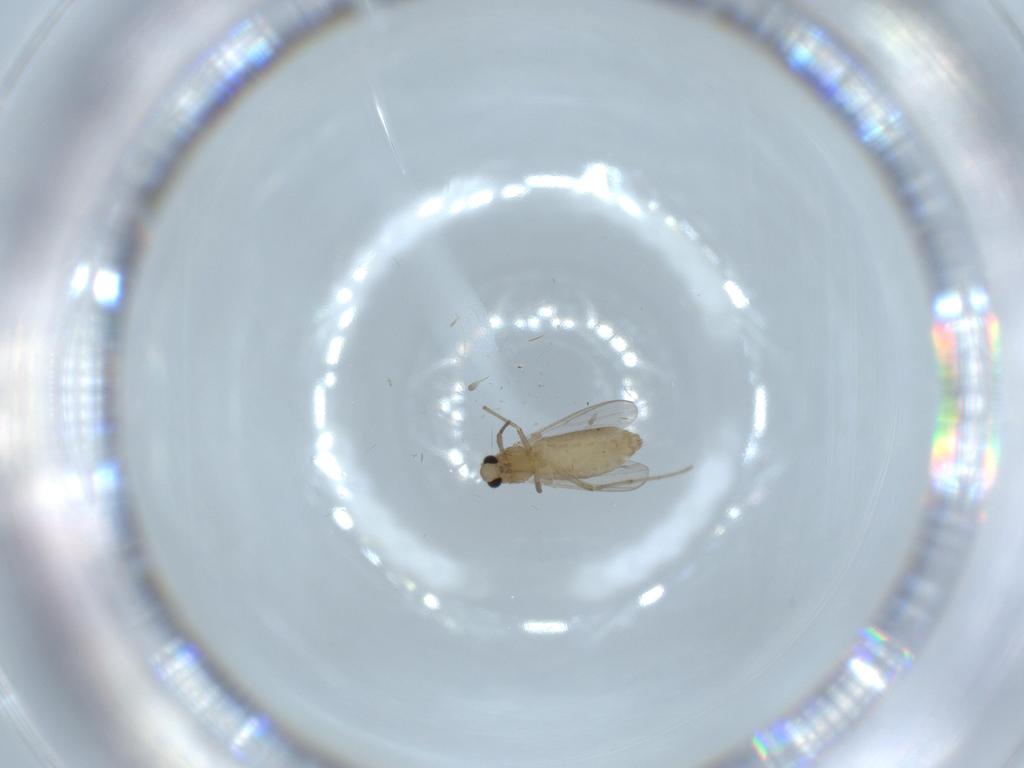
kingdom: Animalia
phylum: Arthropoda
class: Insecta
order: Diptera
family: Chironomidae
